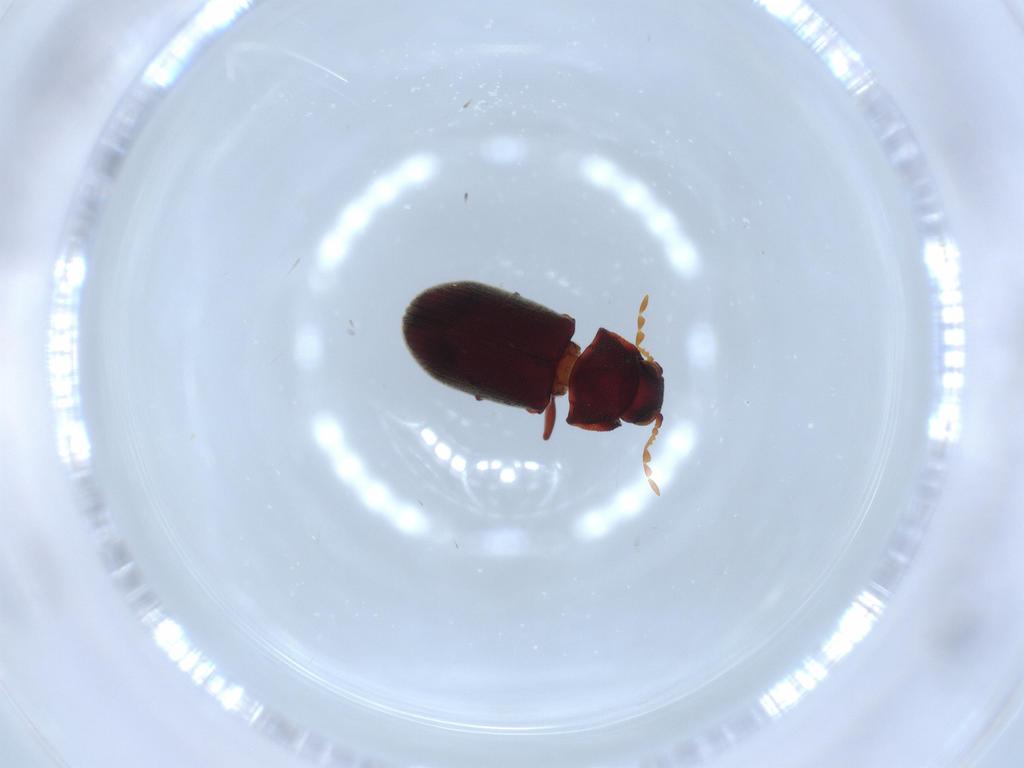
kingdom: Animalia
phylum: Arthropoda
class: Insecta
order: Coleoptera
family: Anobiidae
